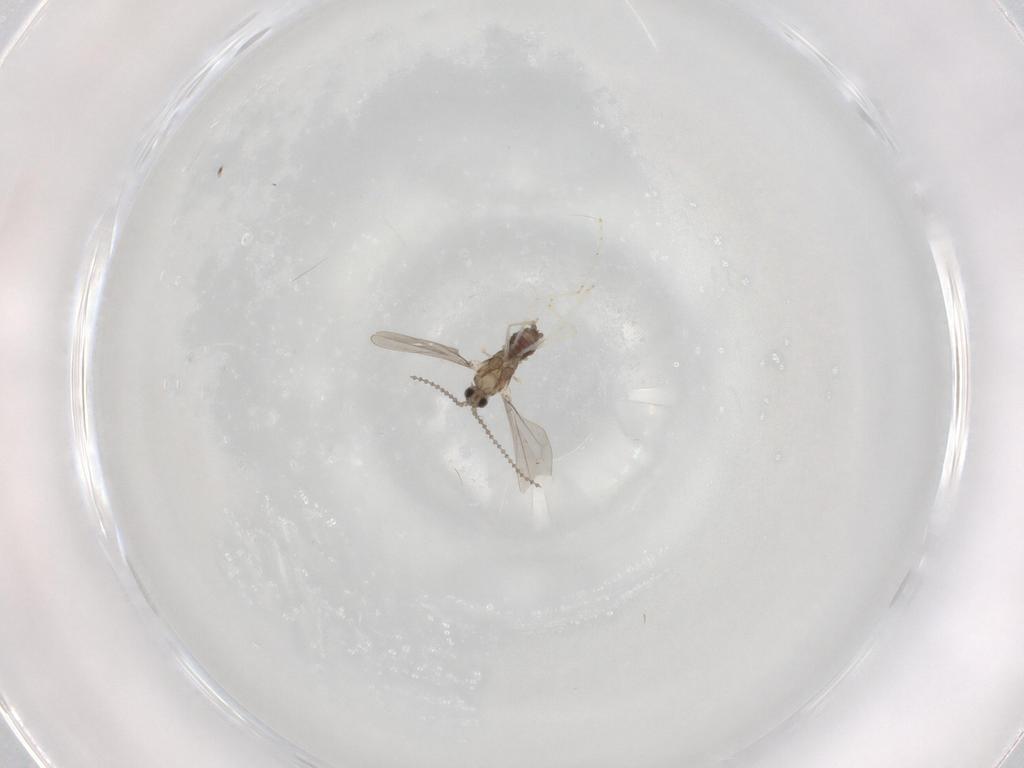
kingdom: Animalia
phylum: Arthropoda
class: Insecta
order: Diptera
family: Cecidomyiidae
